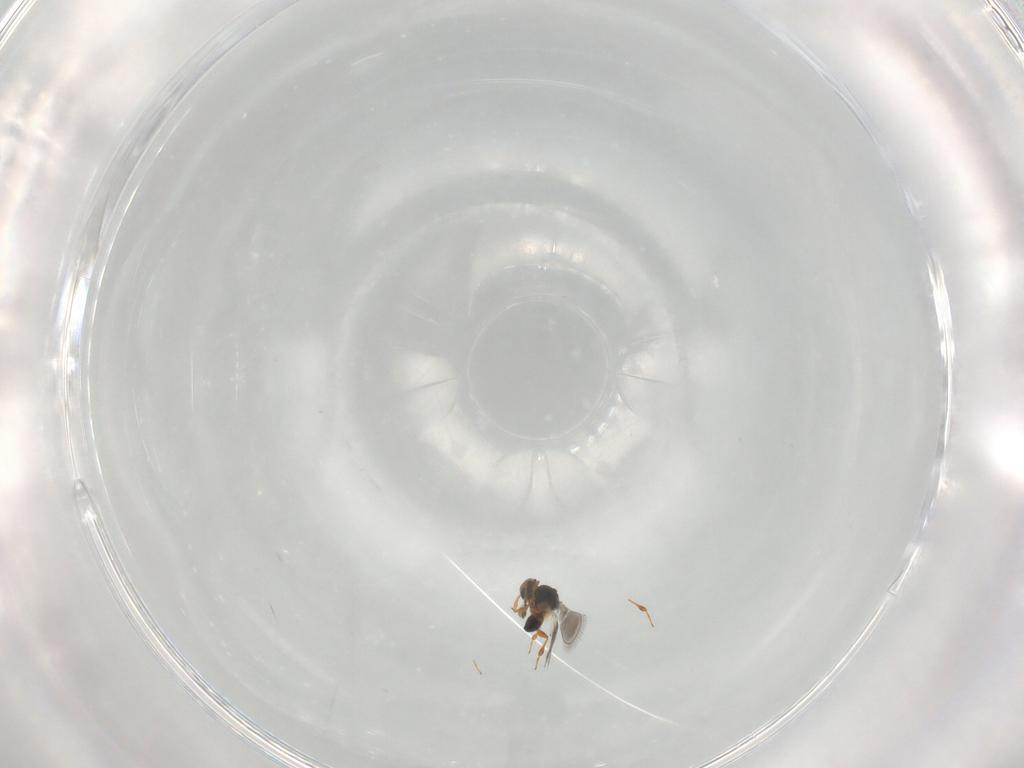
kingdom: Animalia
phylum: Arthropoda
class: Insecta
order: Hymenoptera
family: Platygastridae
